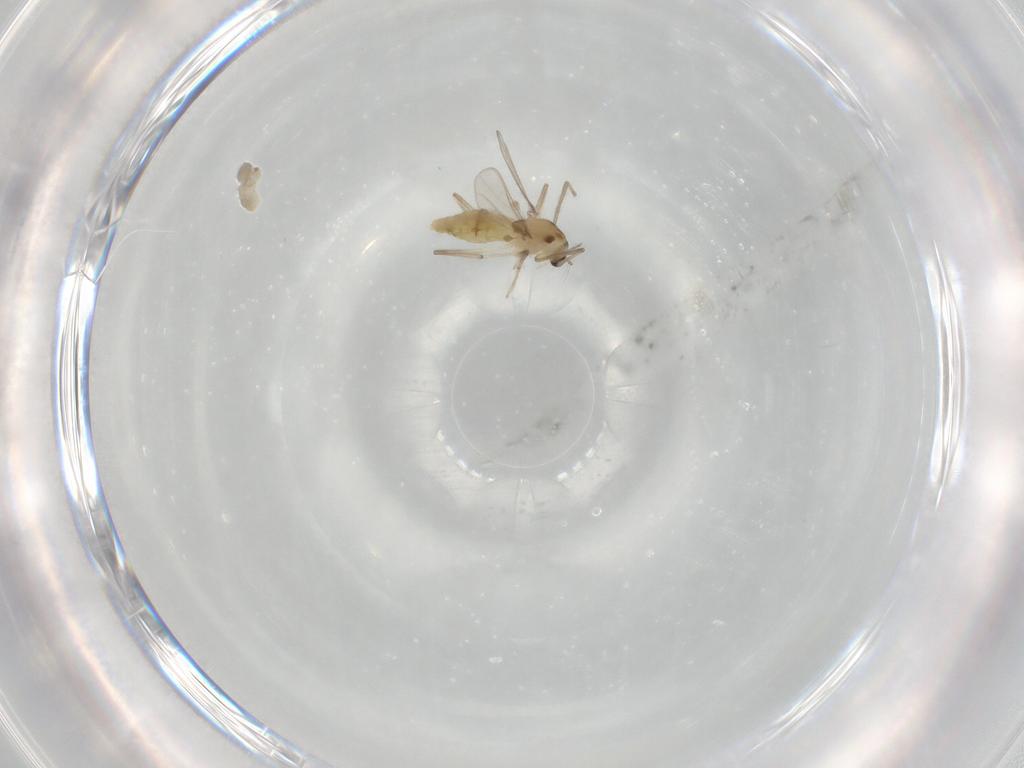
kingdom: Animalia
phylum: Arthropoda
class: Insecta
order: Diptera
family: Chironomidae
